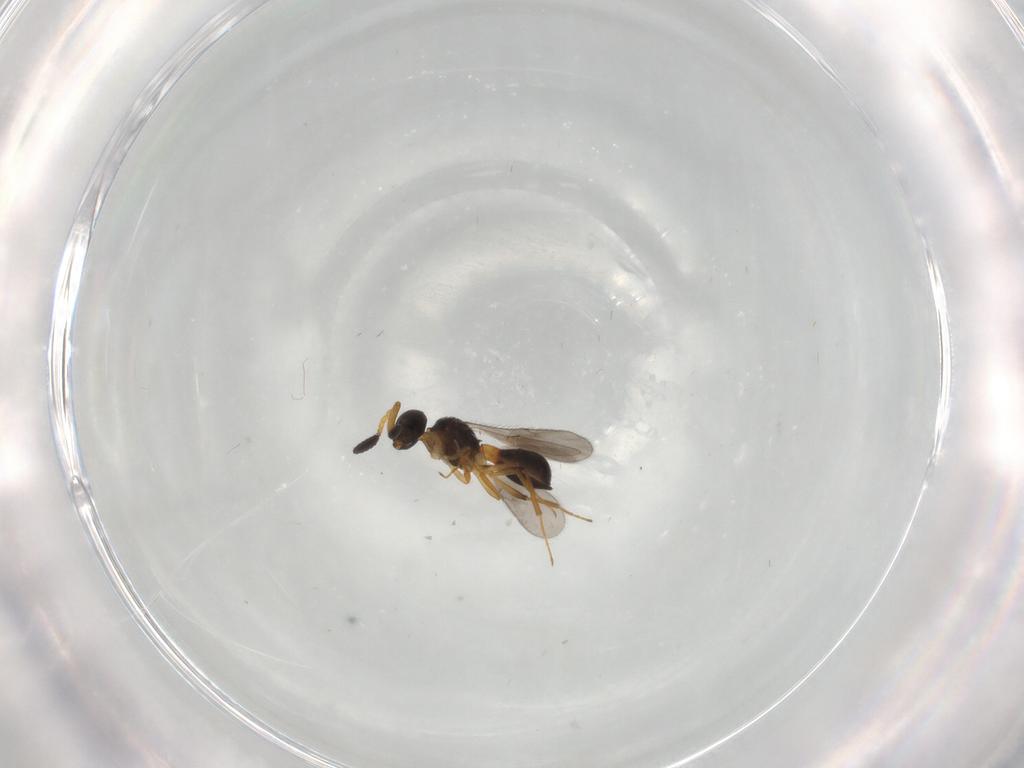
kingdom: Animalia
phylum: Arthropoda
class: Insecta
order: Hymenoptera
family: Scelionidae
